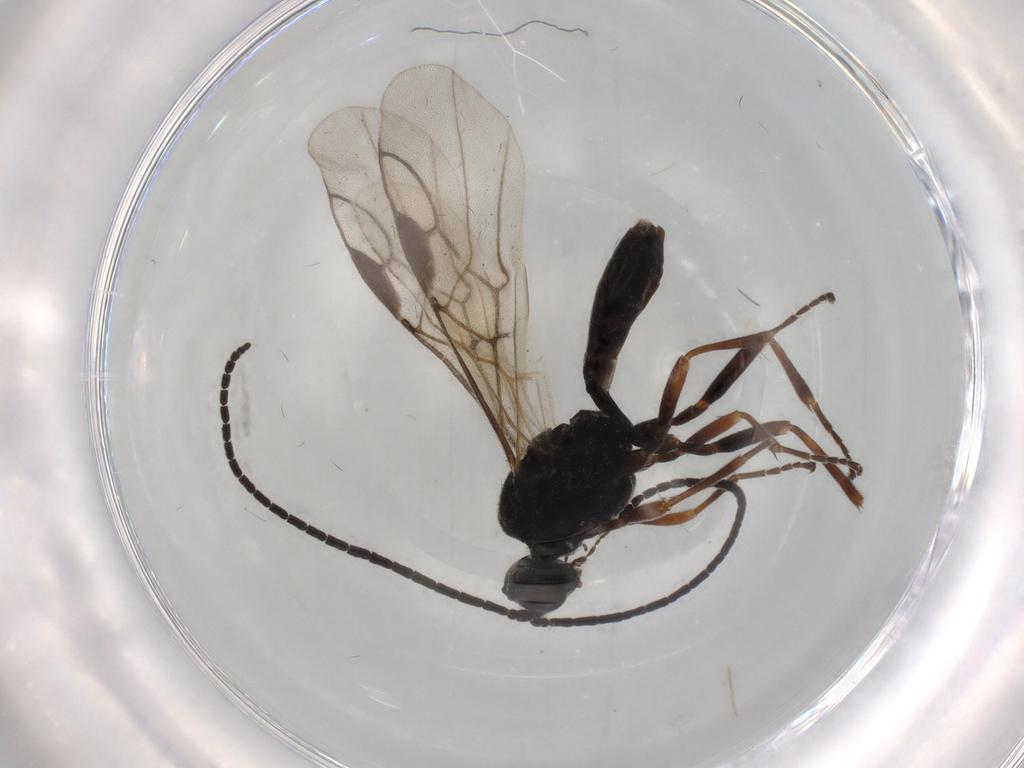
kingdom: Animalia
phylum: Arthropoda
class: Insecta
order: Hymenoptera
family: Braconidae
